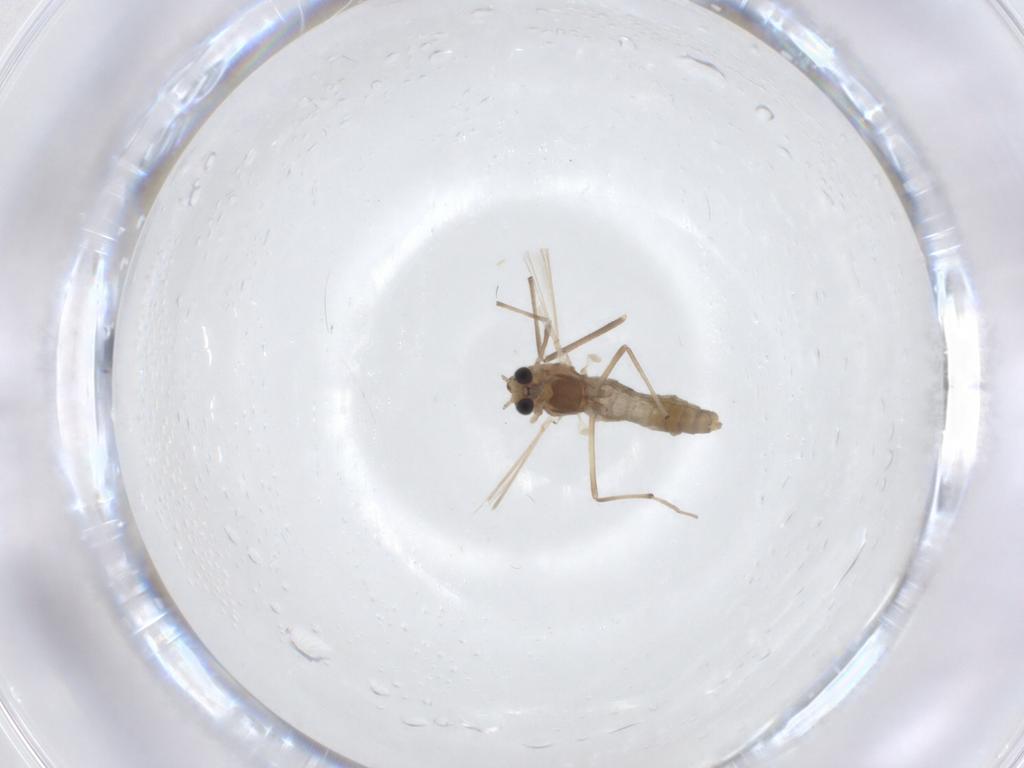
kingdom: Animalia
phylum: Arthropoda
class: Insecta
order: Diptera
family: Chironomidae
